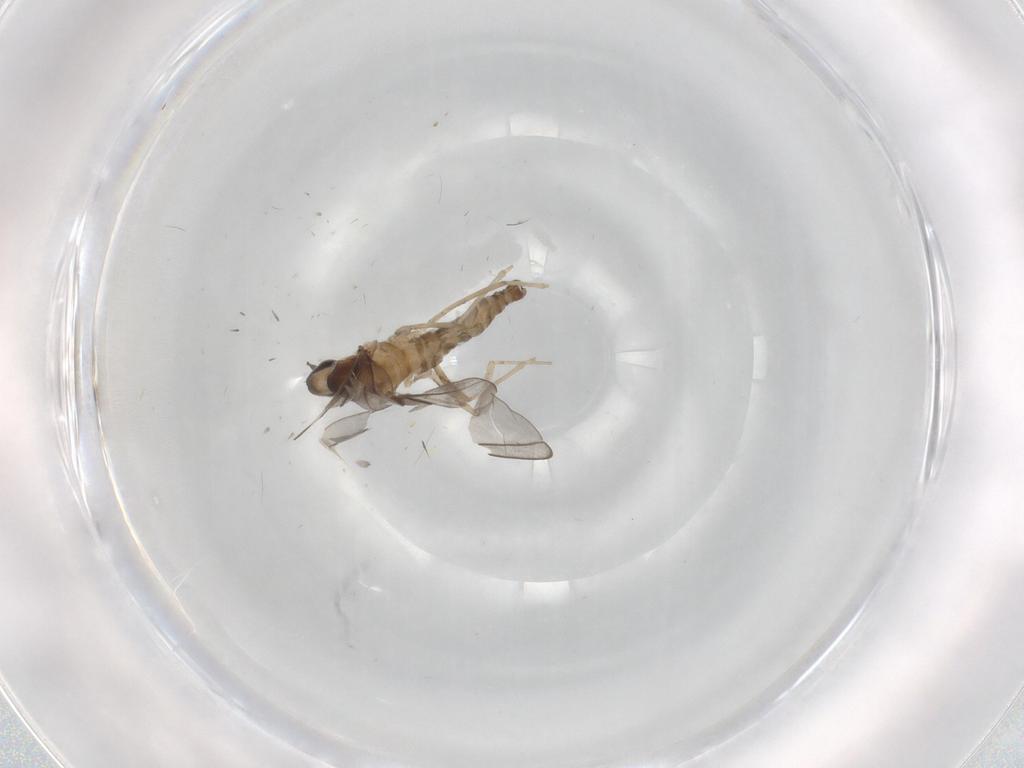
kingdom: Animalia
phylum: Arthropoda
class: Insecta
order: Diptera
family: Cecidomyiidae
